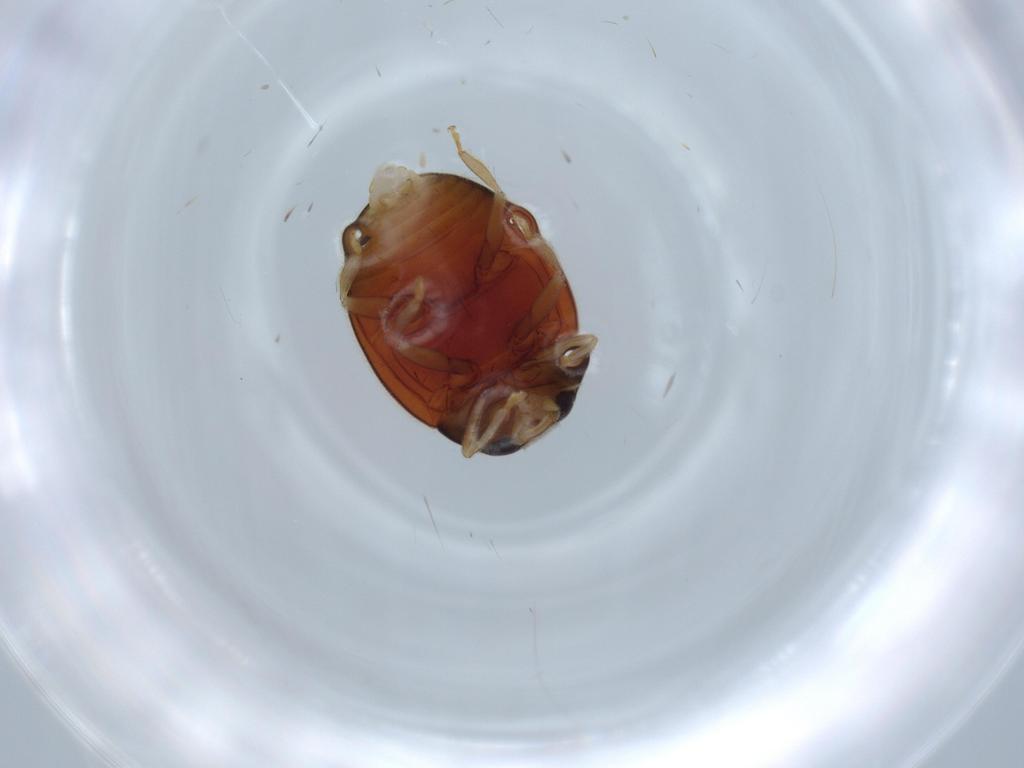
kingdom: Animalia
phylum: Arthropoda
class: Insecta
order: Coleoptera
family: Coccinellidae
